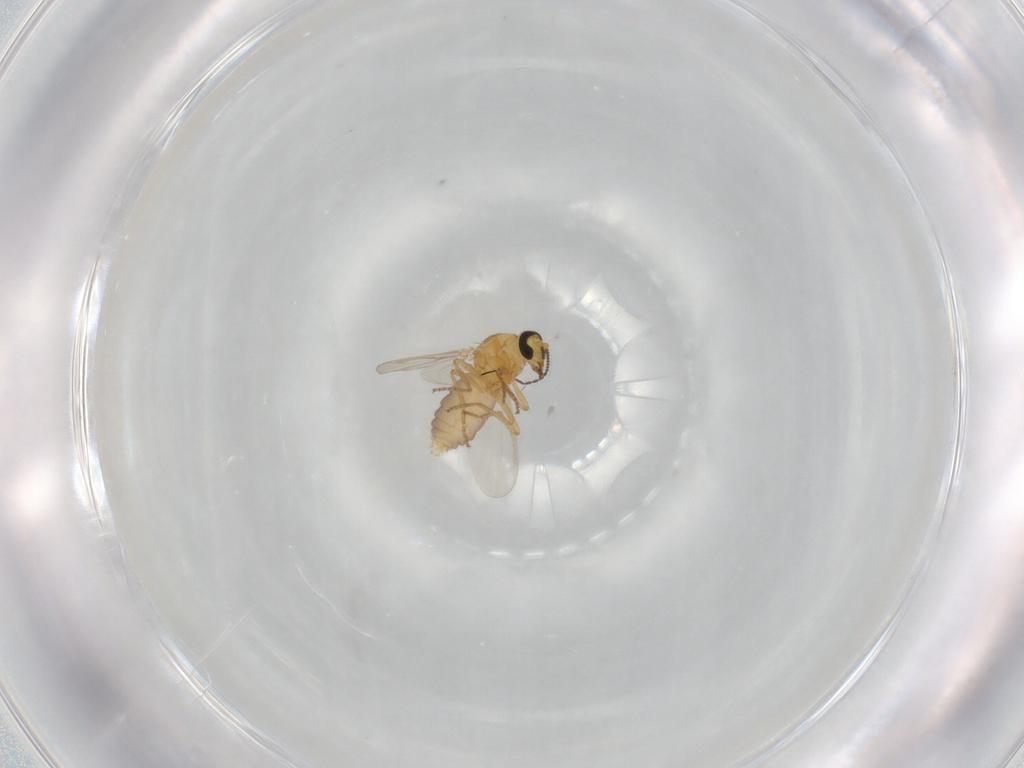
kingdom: Animalia
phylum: Arthropoda
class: Insecta
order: Diptera
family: Ceratopogonidae
